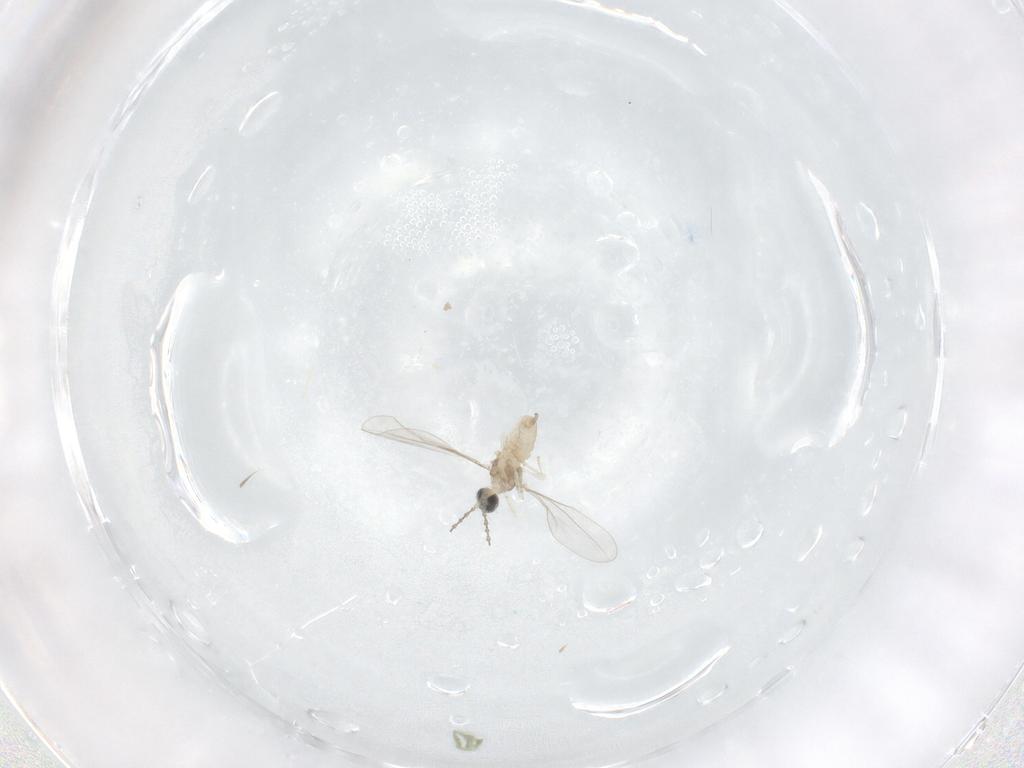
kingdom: Animalia
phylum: Arthropoda
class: Insecta
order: Diptera
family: Cecidomyiidae
